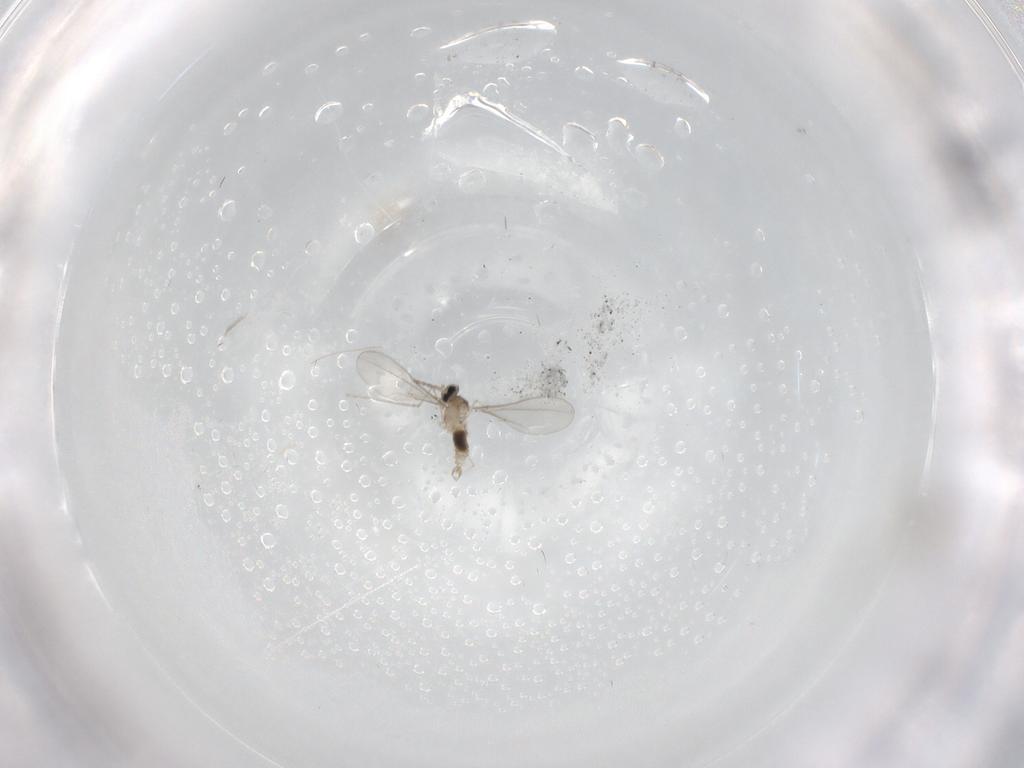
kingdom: Animalia
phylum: Arthropoda
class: Insecta
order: Diptera
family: Cecidomyiidae
